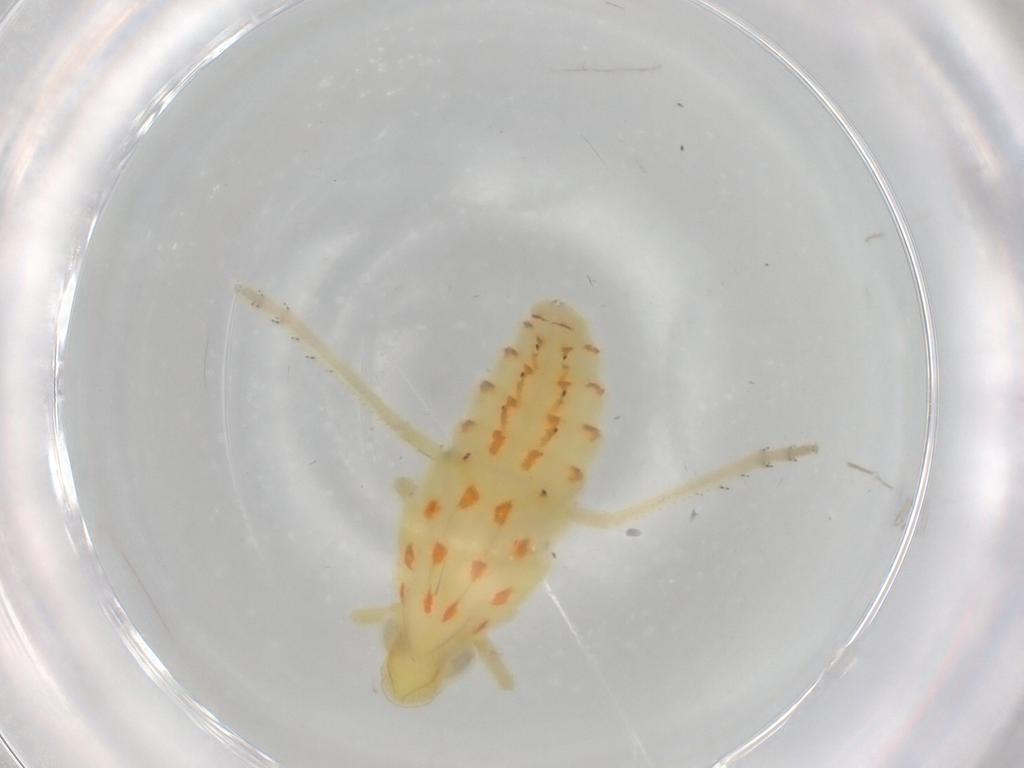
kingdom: Animalia
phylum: Arthropoda
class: Insecta
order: Hemiptera
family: Tropiduchidae
